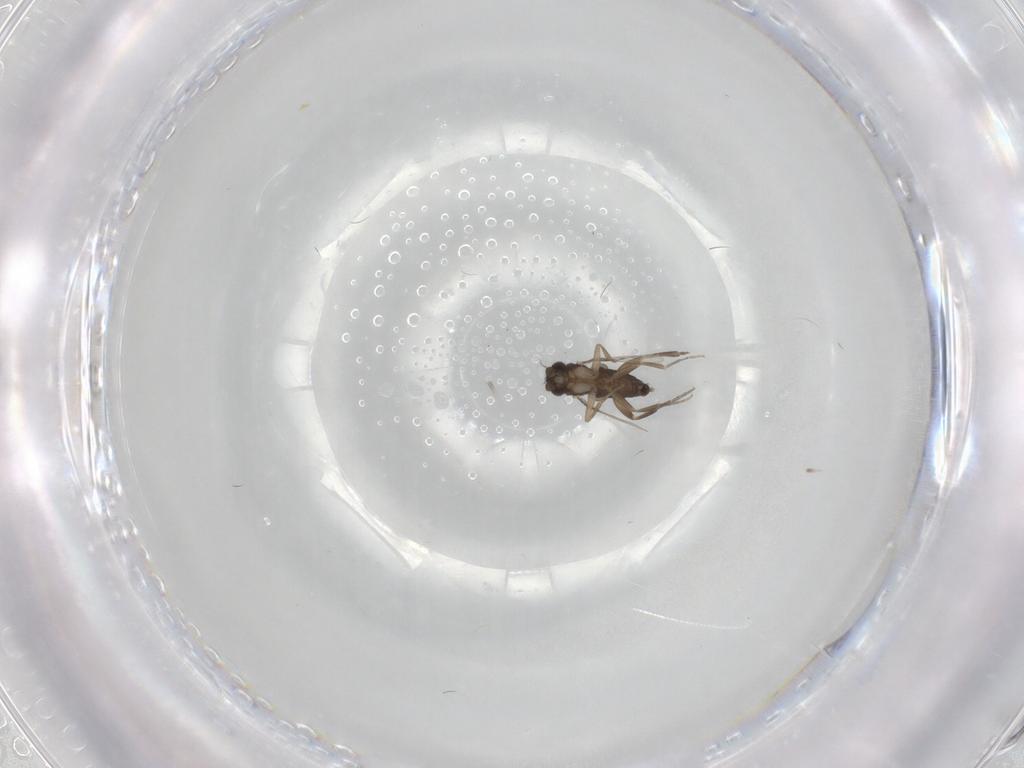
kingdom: Animalia
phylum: Arthropoda
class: Insecta
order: Diptera
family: Phoridae
